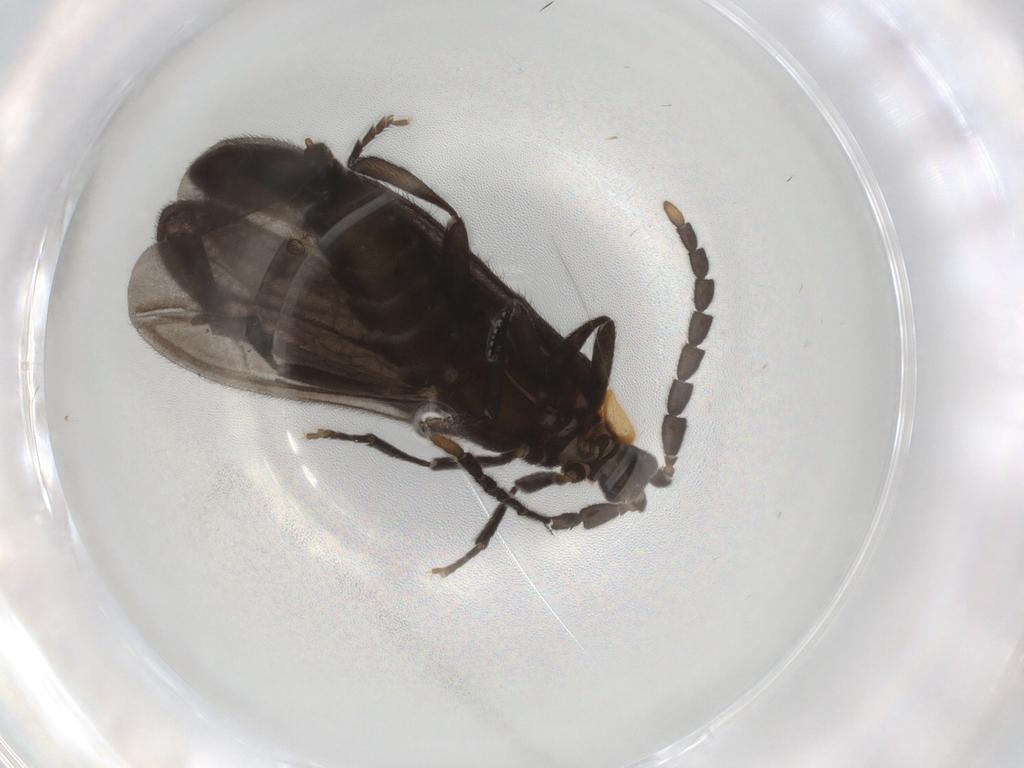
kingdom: Animalia
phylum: Arthropoda
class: Insecta
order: Coleoptera
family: Lycidae
